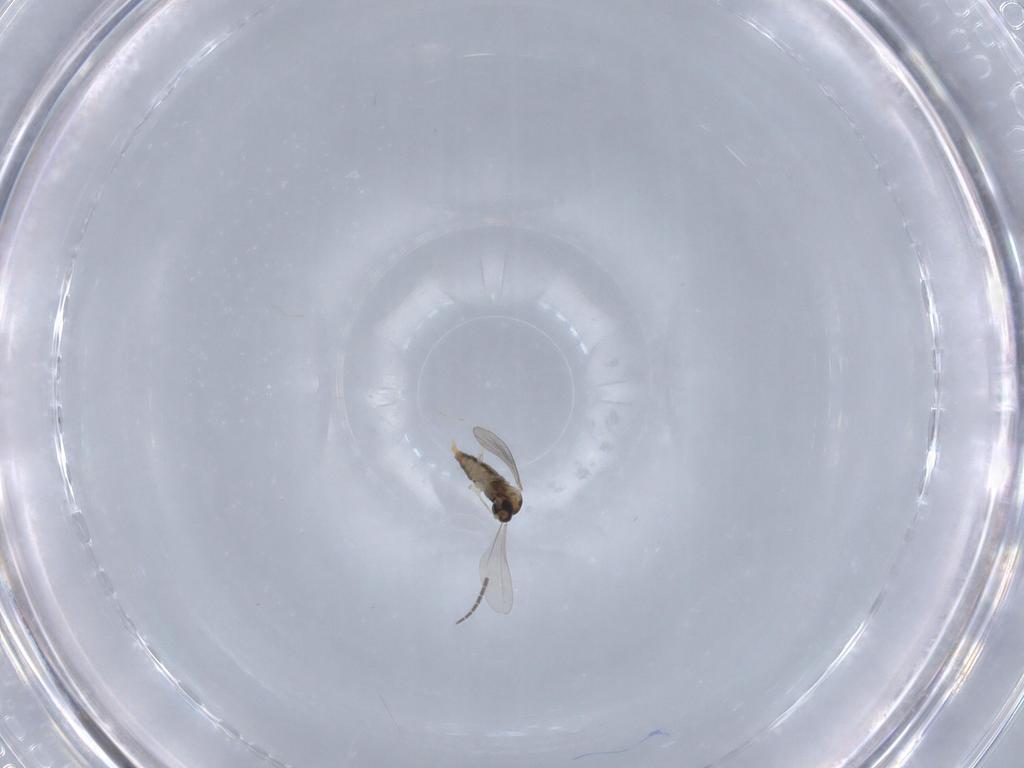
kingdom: Animalia
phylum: Arthropoda
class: Insecta
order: Diptera
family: Cecidomyiidae
